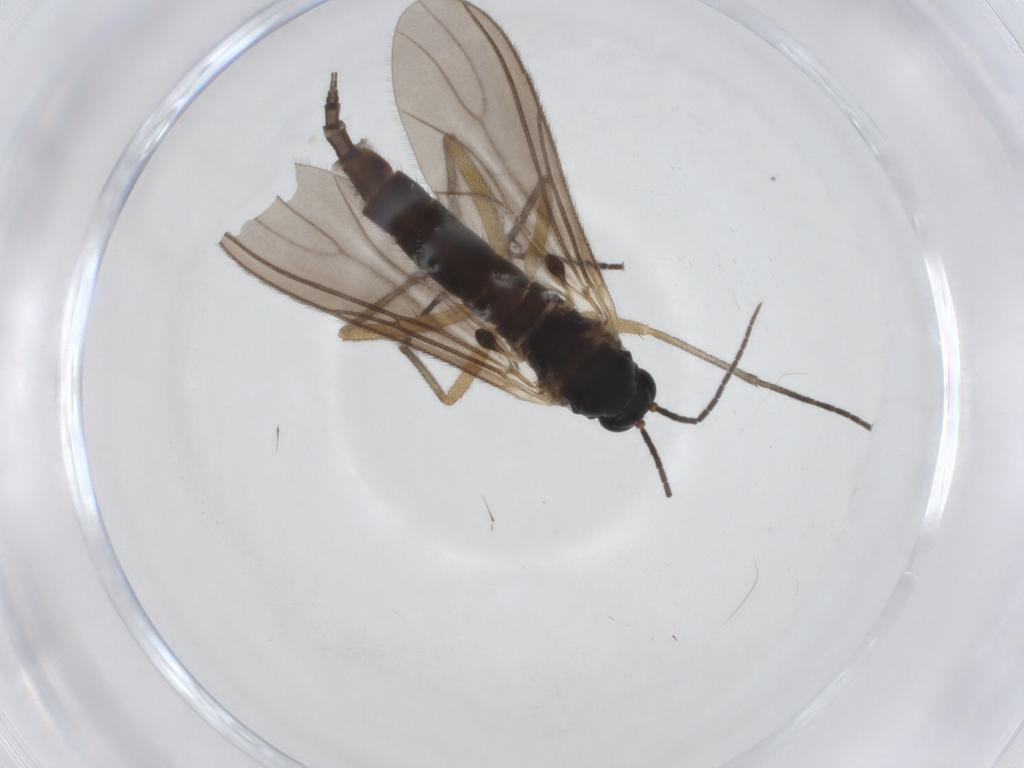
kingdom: Animalia
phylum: Arthropoda
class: Insecta
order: Diptera
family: Sciaridae
